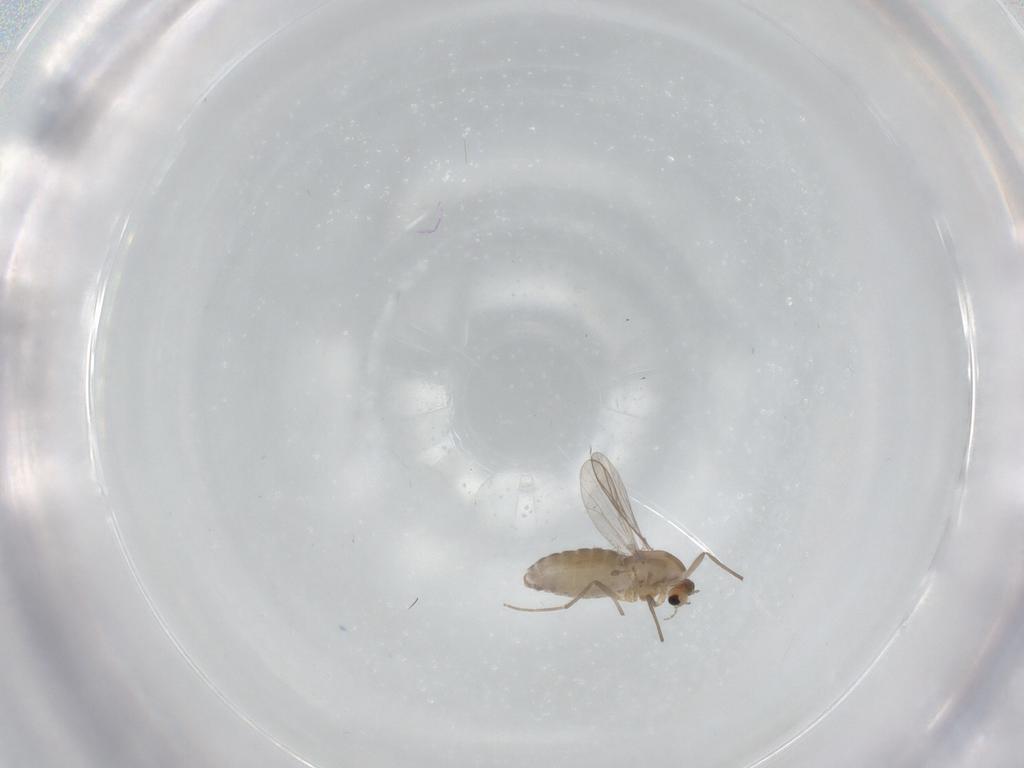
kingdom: Animalia
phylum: Arthropoda
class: Insecta
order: Diptera
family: Chironomidae
